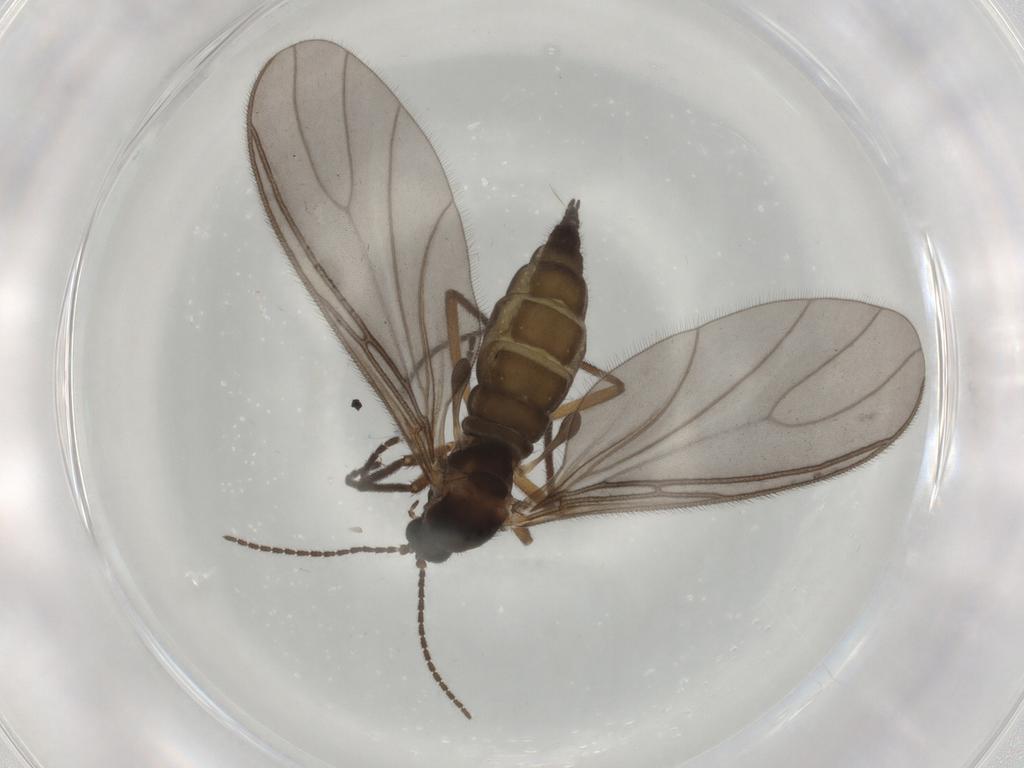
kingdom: Animalia
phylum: Arthropoda
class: Insecta
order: Diptera
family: Sciaridae
